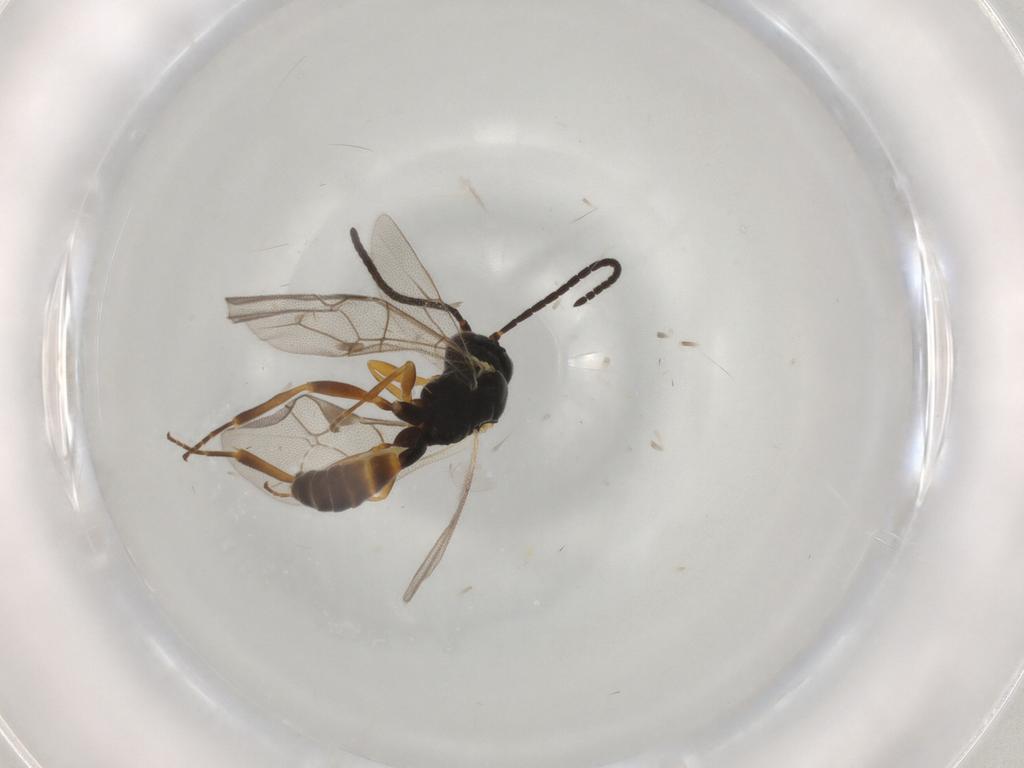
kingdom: Animalia
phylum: Arthropoda
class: Insecta
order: Hymenoptera
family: Ichneumonidae
